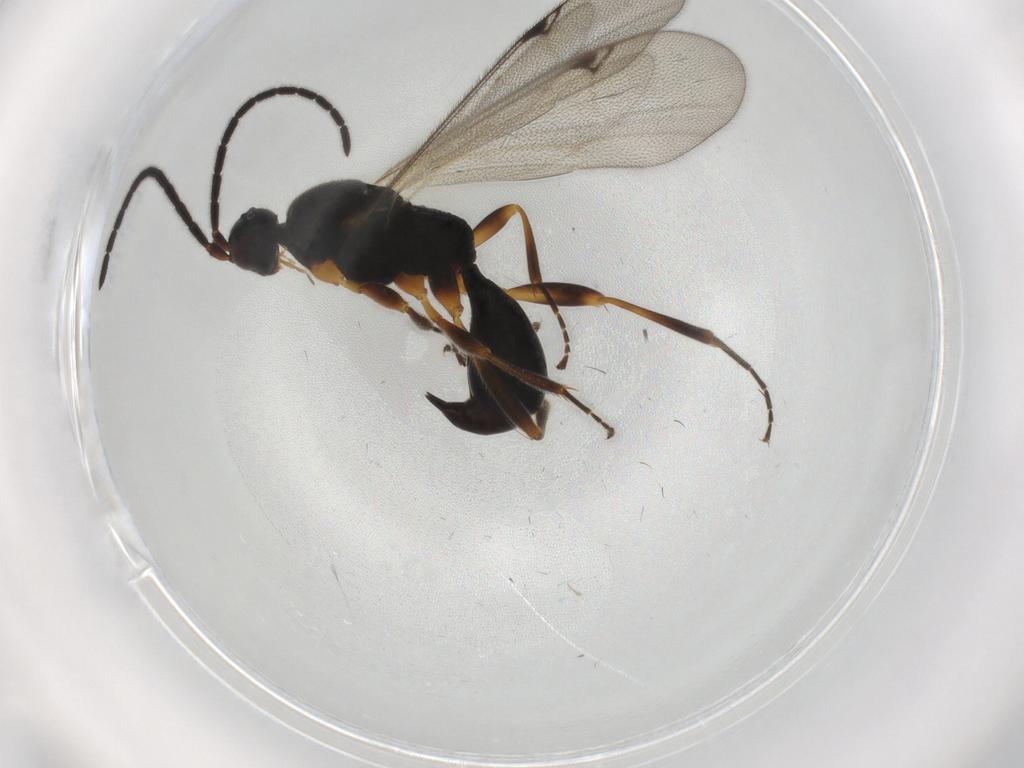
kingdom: Animalia
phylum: Arthropoda
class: Insecta
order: Hymenoptera
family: Proctotrupidae
